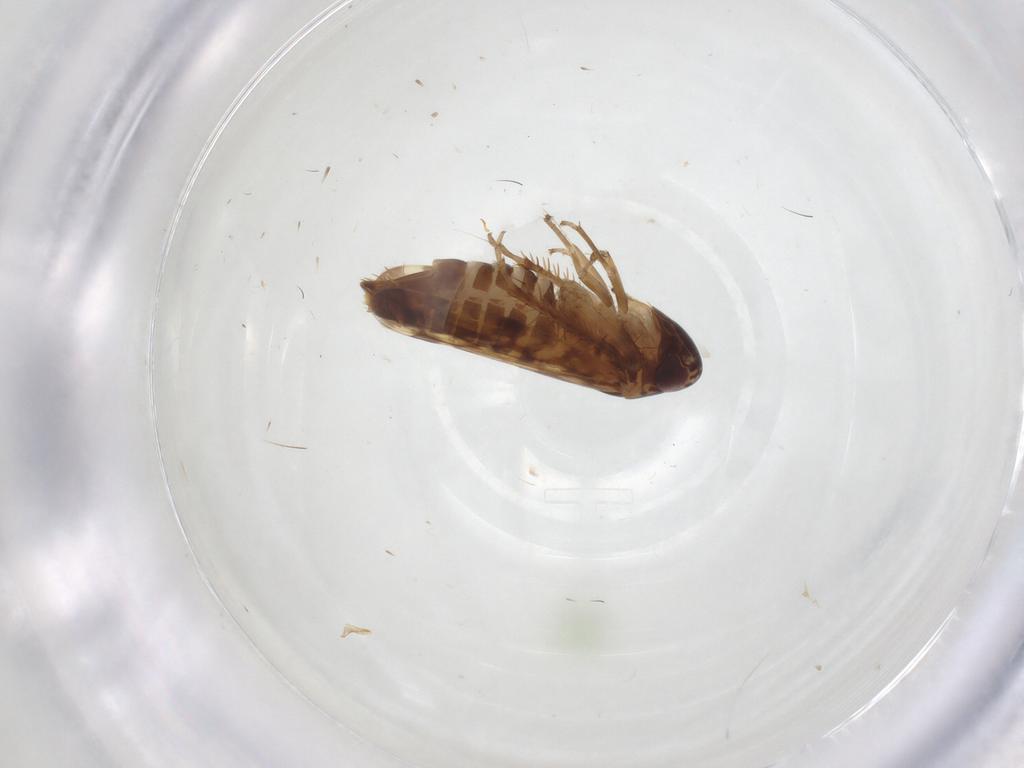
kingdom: Animalia
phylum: Arthropoda
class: Insecta
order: Hemiptera
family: Cicadellidae
